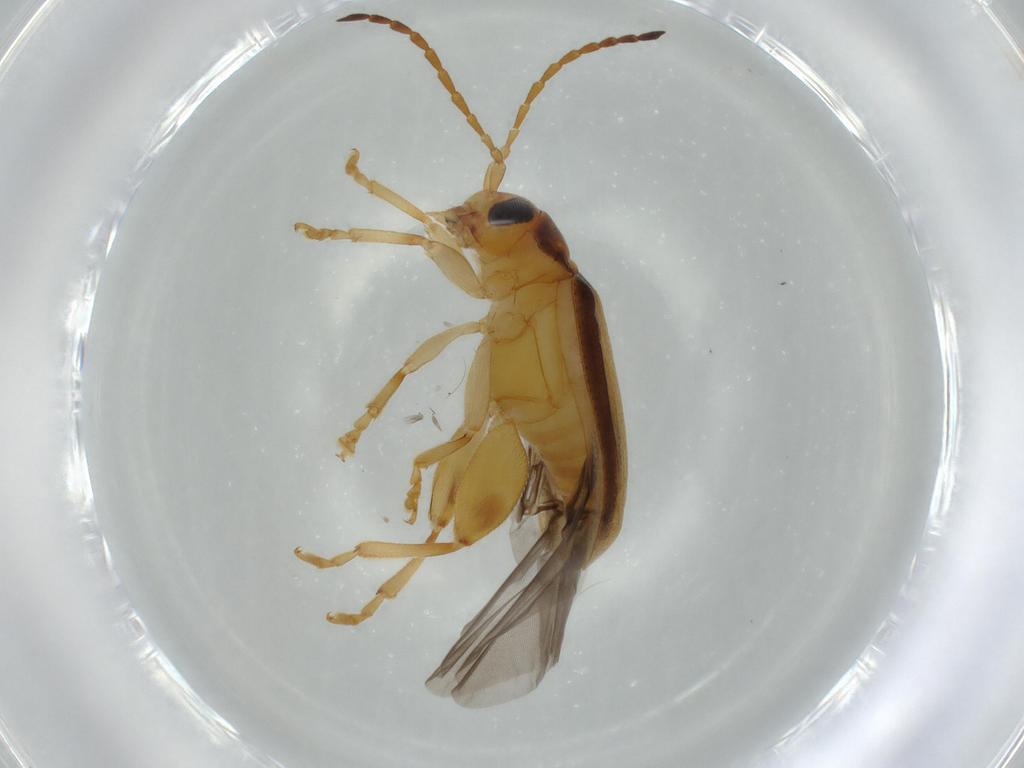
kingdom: Animalia
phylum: Arthropoda
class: Insecta
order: Coleoptera
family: Chrysomelidae
